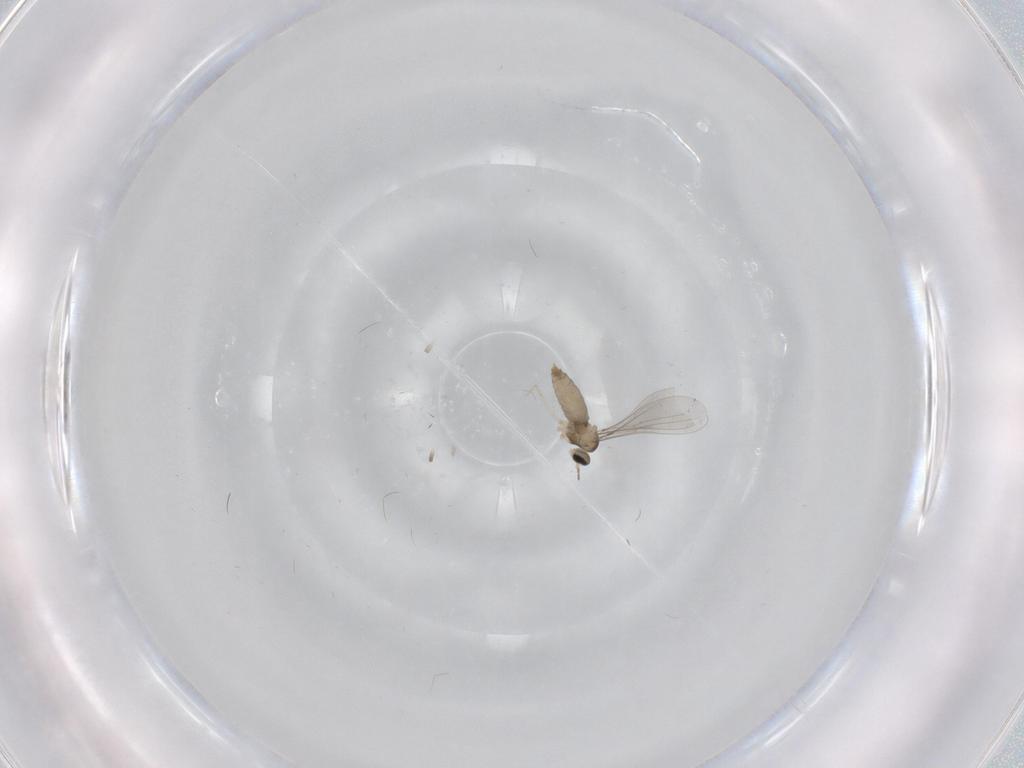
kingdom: Animalia
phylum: Arthropoda
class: Insecta
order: Diptera
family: Cecidomyiidae
